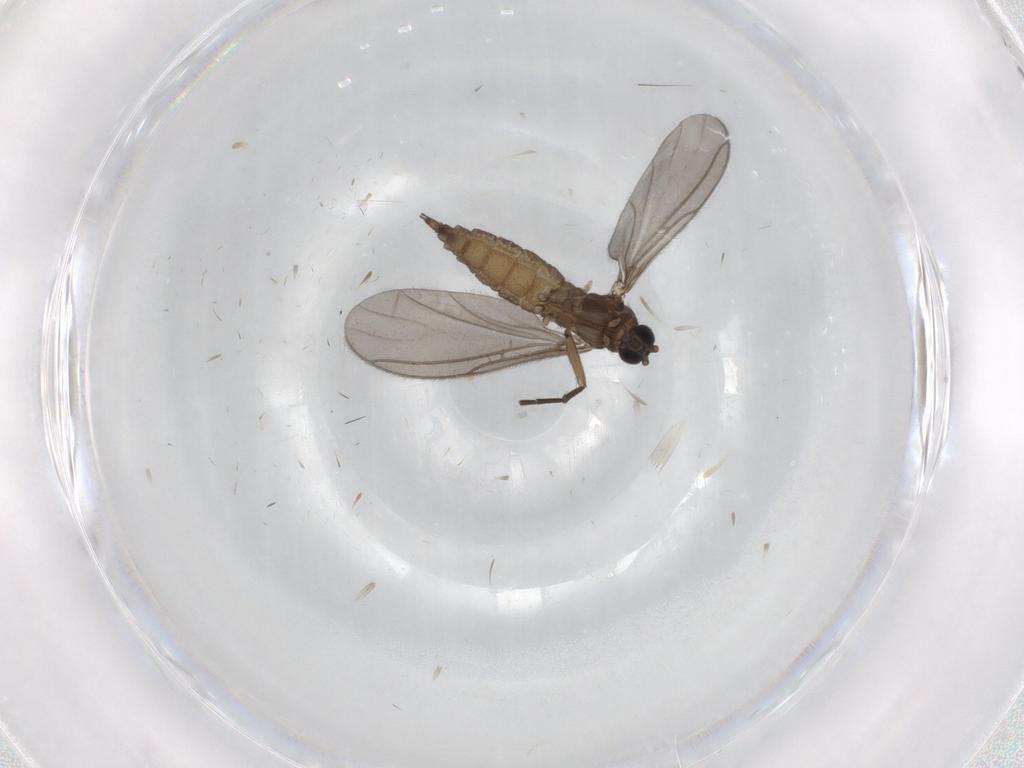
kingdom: Animalia
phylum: Arthropoda
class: Insecta
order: Diptera
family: Sciaridae
